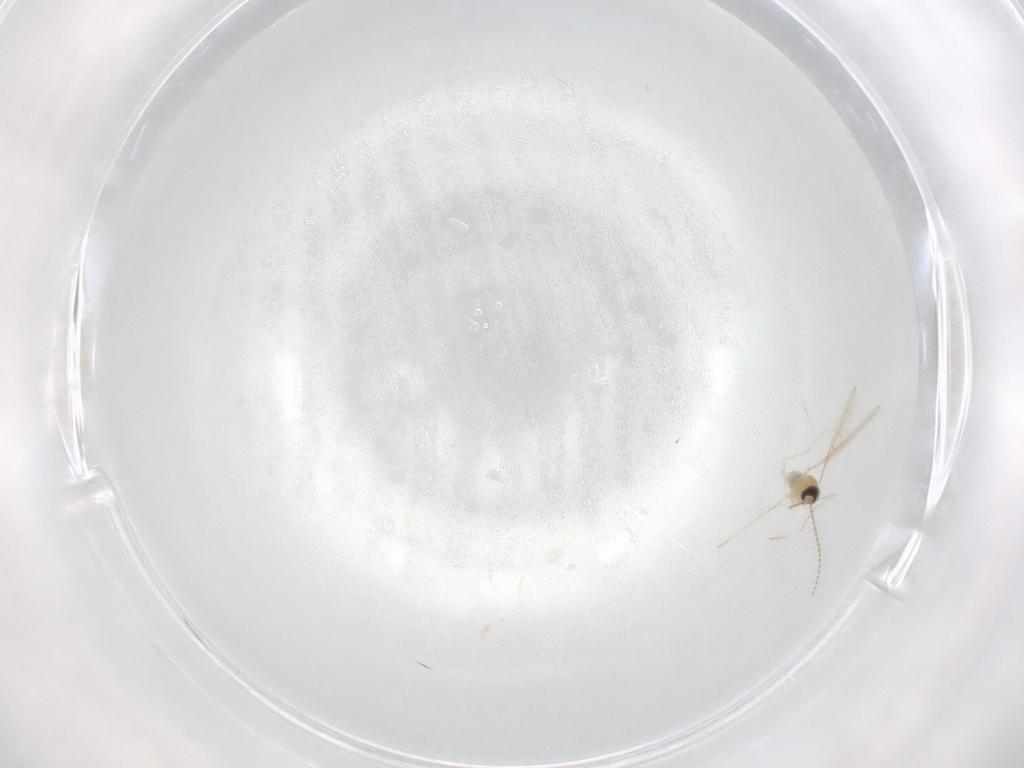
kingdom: Animalia
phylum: Arthropoda
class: Insecta
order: Diptera
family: Cecidomyiidae
